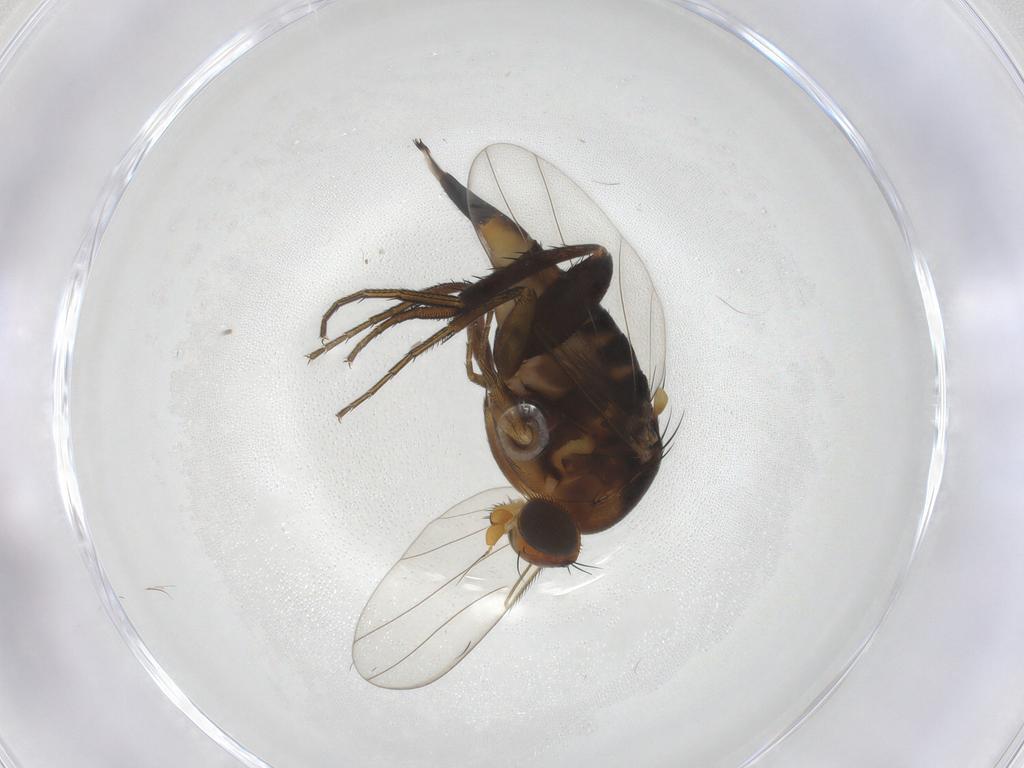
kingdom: Animalia
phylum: Arthropoda
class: Insecta
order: Diptera
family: Phoridae
